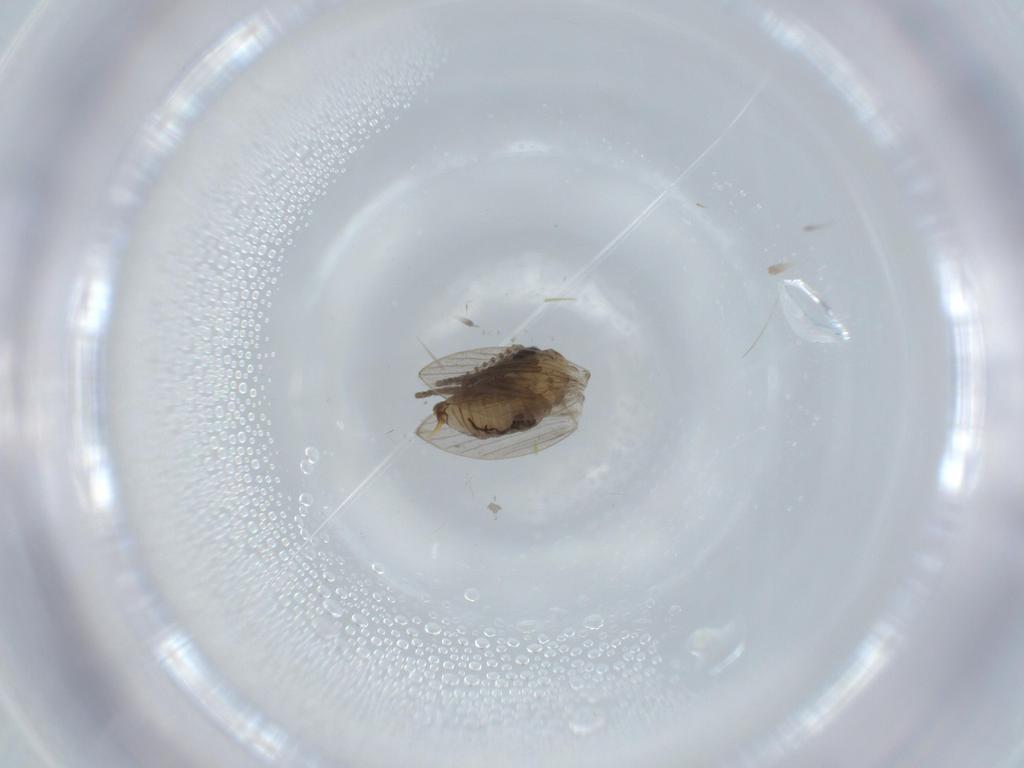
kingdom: Animalia
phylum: Arthropoda
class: Insecta
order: Diptera
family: Psychodidae
